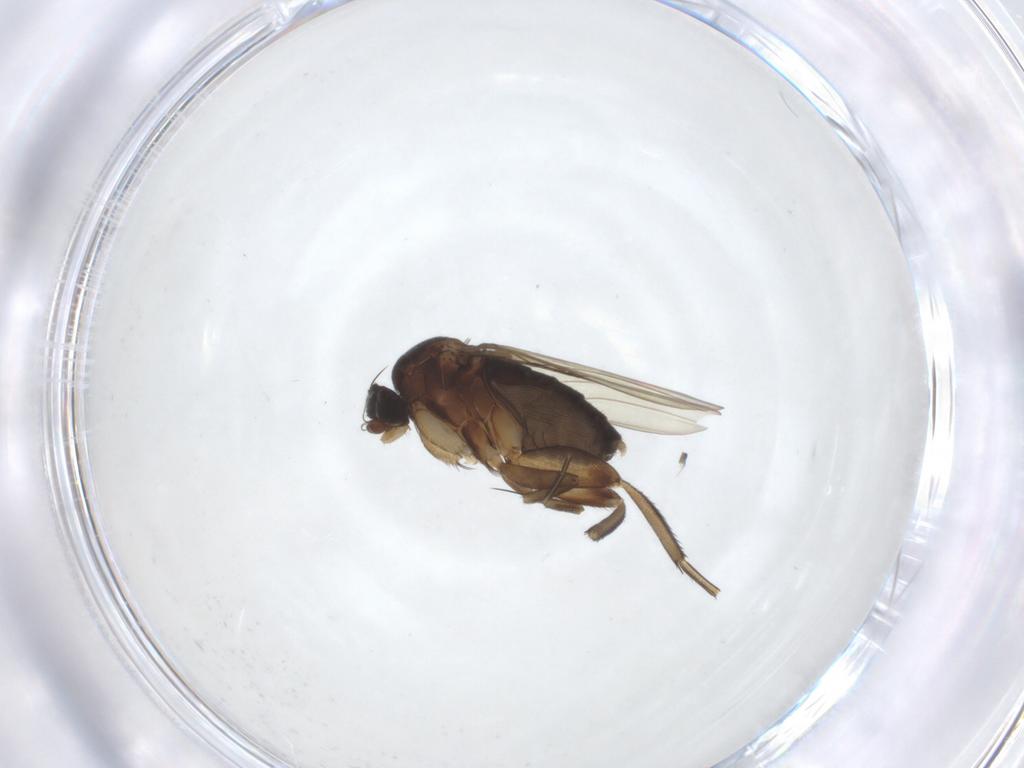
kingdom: Animalia
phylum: Arthropoda
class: Insecta
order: Diptera
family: Phoridae
